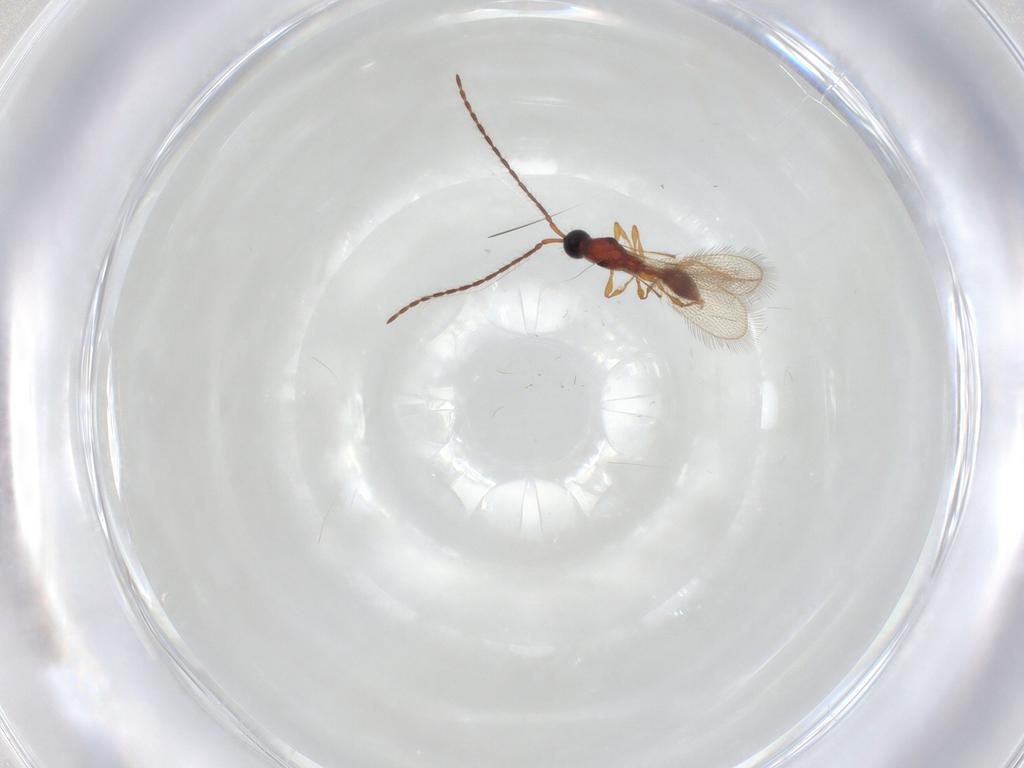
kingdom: Animalia
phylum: Arthropoda
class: Insecta
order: Hymenoptera
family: Diapriidae
